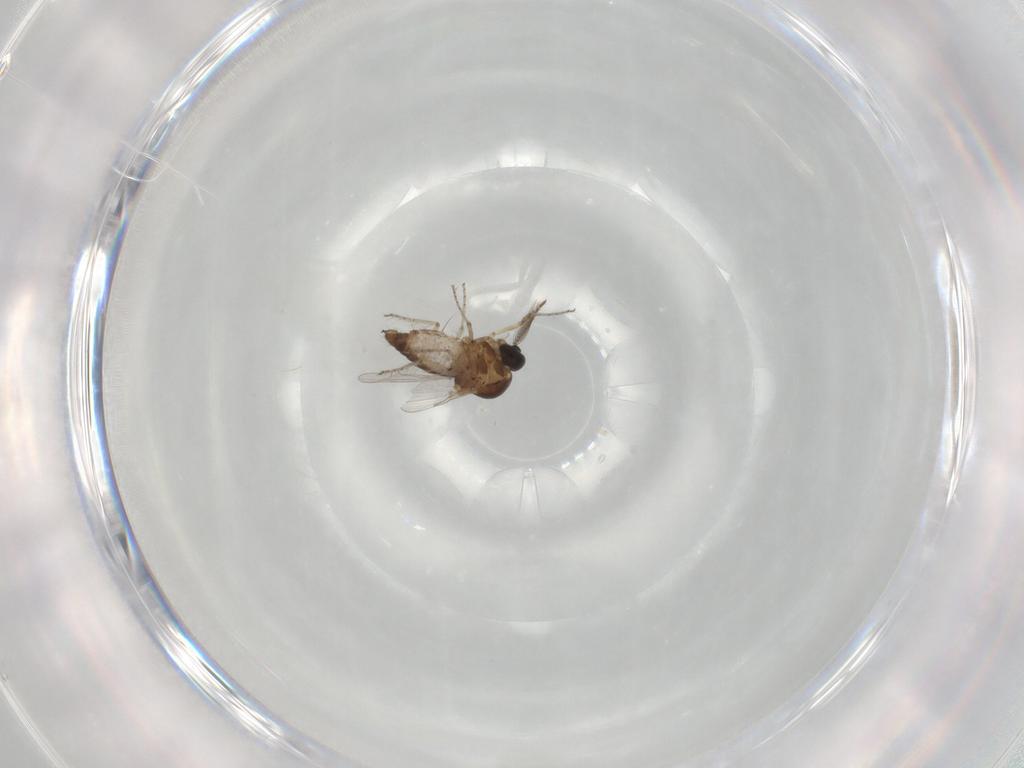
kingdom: Animalia
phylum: Arthropoda
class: Insecta
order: Diptera
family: Ceratopogonidae
